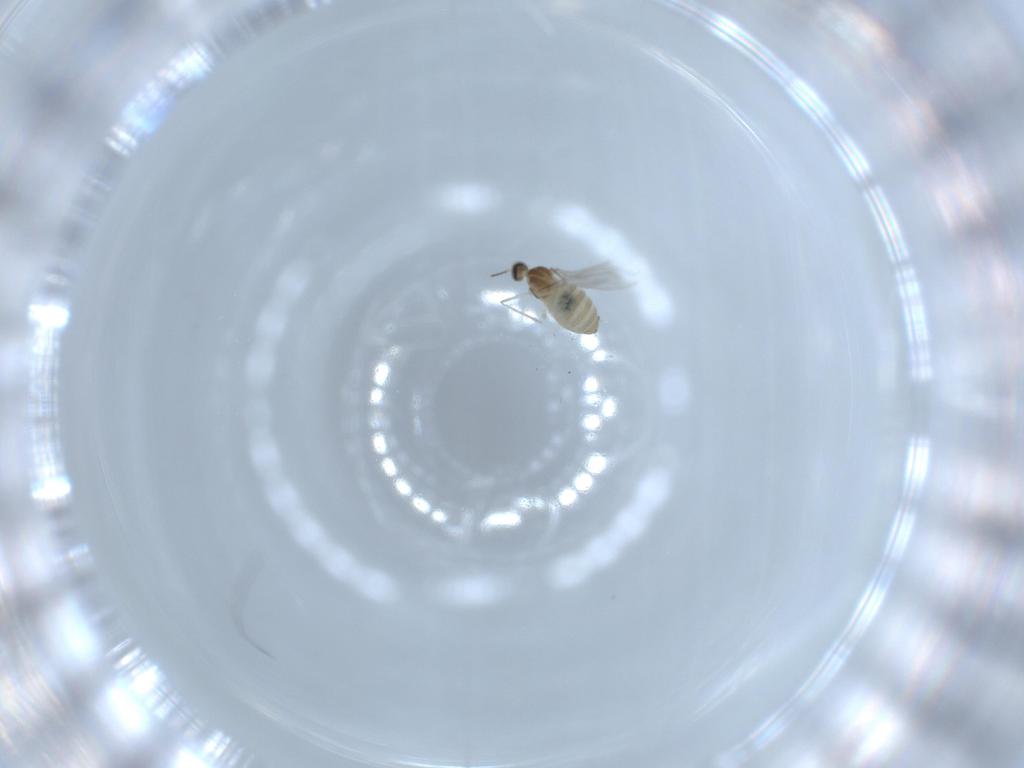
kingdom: Animalia
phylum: Arthropoda
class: Insecta
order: Diptera
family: Cecidomyiidae
